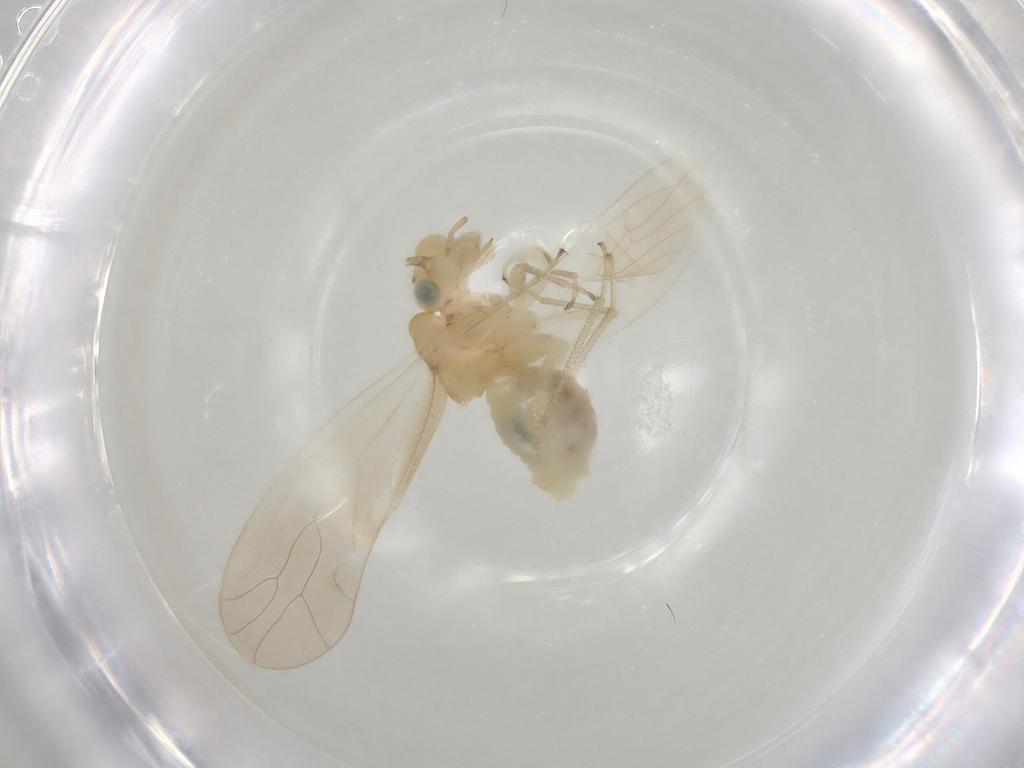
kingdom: Animalia
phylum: Arthropoda
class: Insecta
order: Diptera
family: Chironomidae
